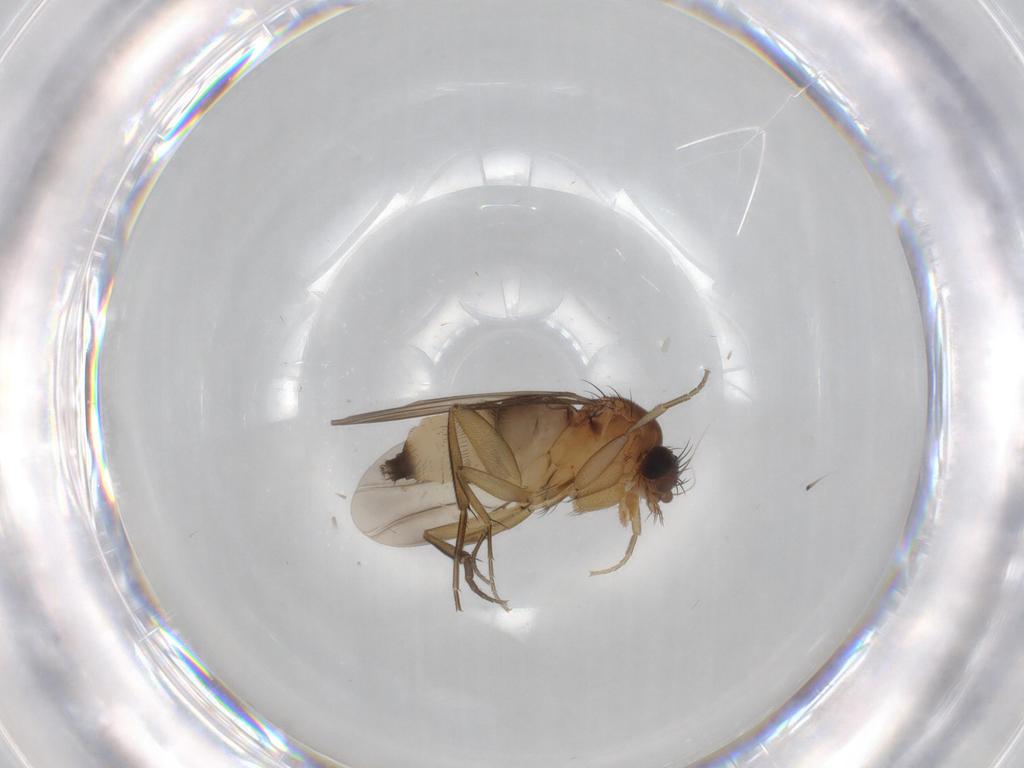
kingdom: Animalia
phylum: Arthropoda
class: Insecta
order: Diptera
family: Phoridae
